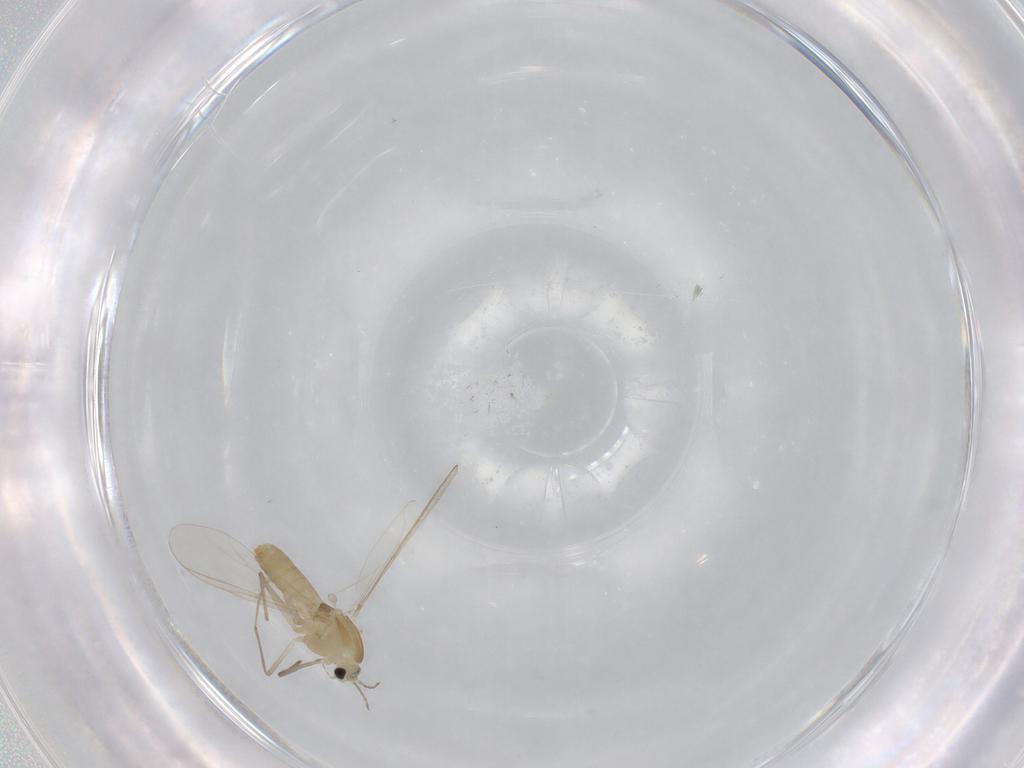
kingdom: Animalia
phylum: Arthropoda
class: Insecta
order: Diptera
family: Chironomidae
